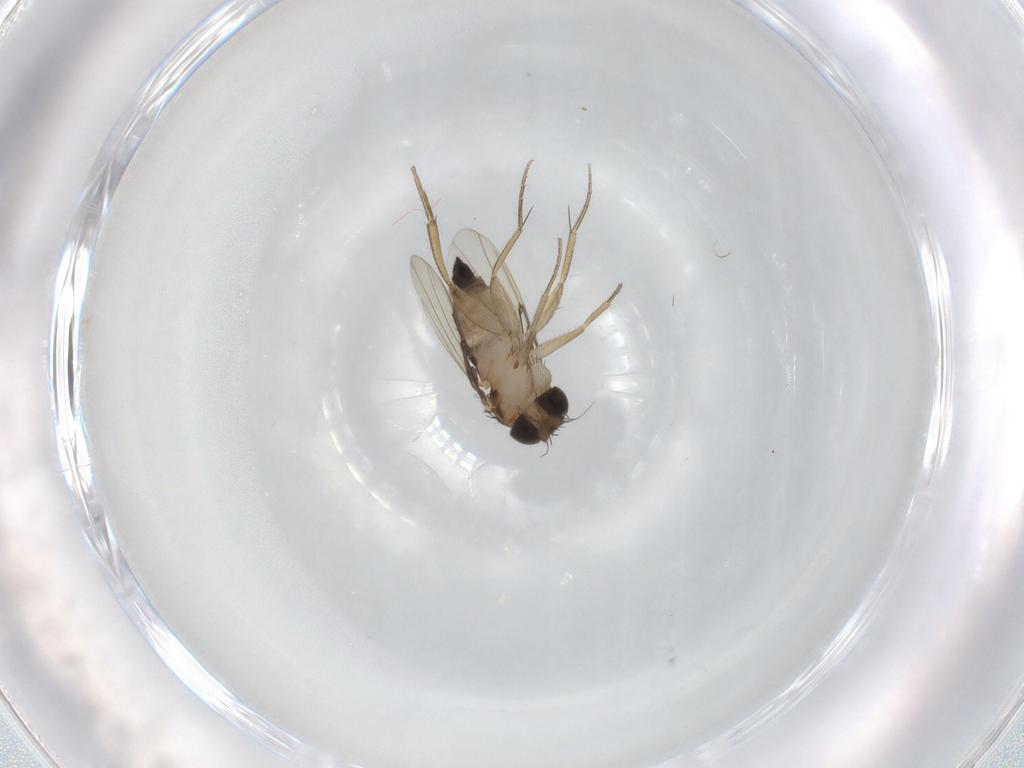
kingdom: Animalia
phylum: Arthropoda
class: Insecta
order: Diptera
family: Phoridae
